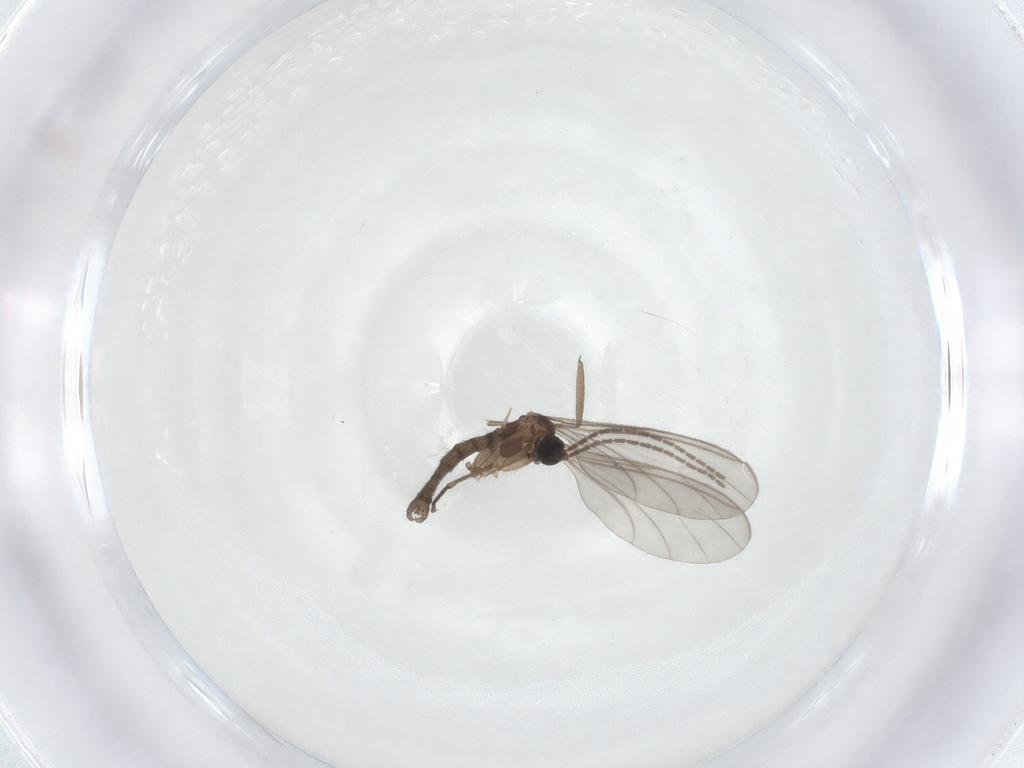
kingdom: Animalia
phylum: Arthropoda
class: Insecta
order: Diptera
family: Sciaridae
